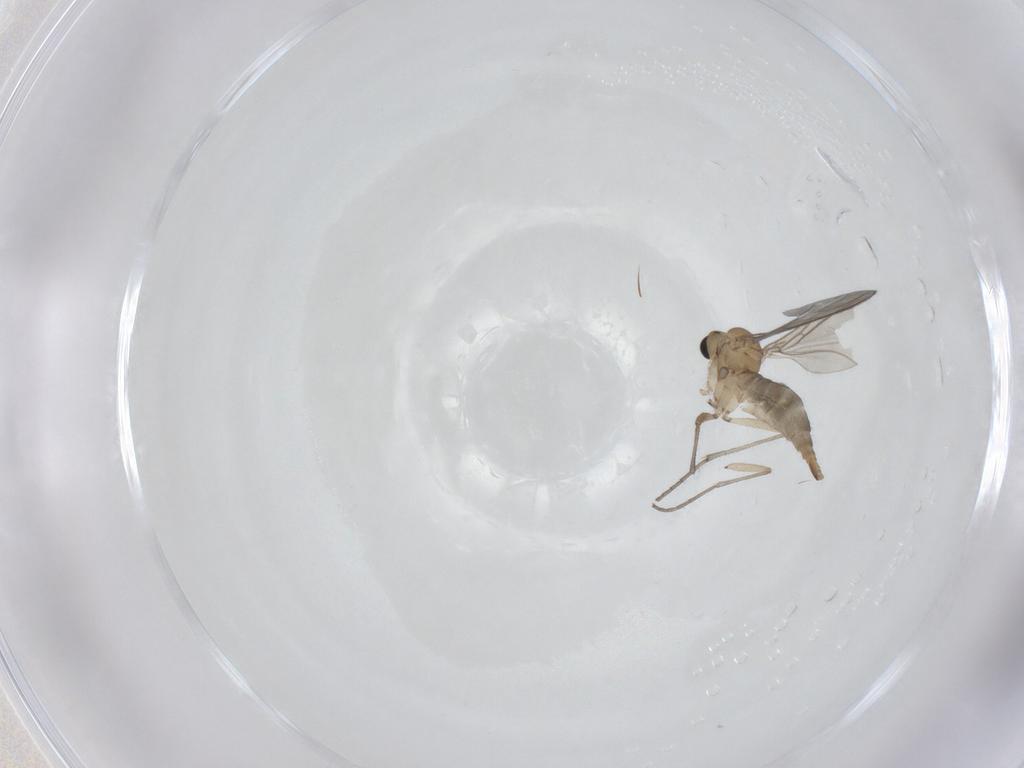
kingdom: Animalia
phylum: Arthropoda
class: Insecta
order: Diptera
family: Sciaridae
